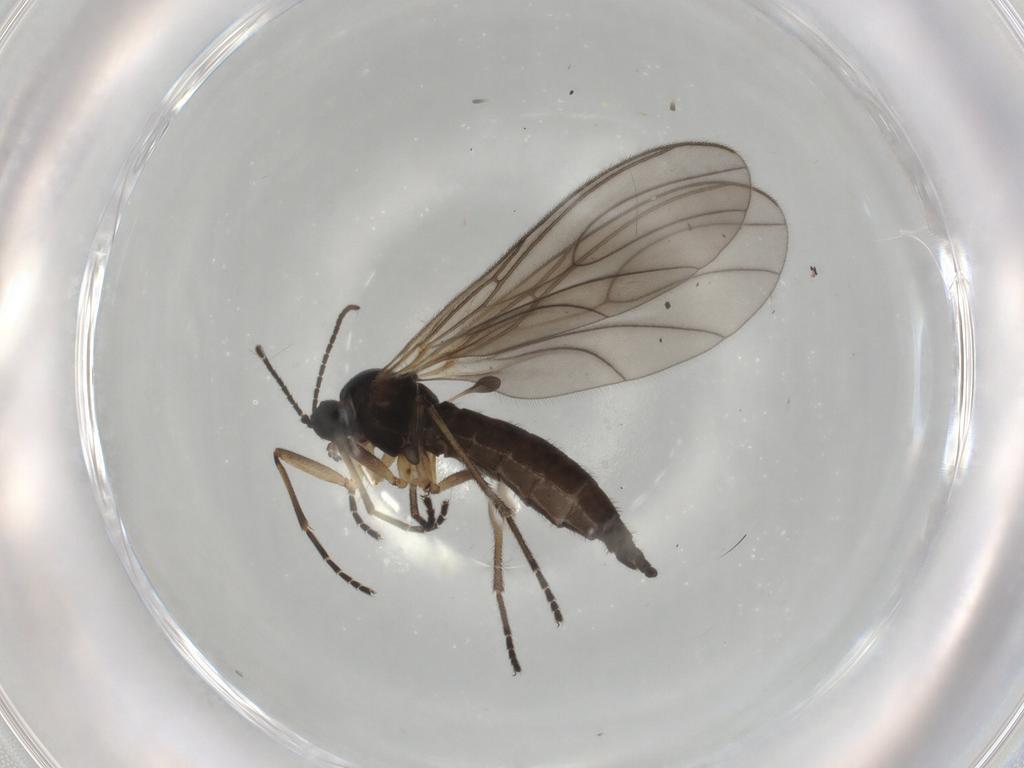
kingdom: Animalia
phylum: Arthropoda
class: Insecta
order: Diptera
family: Sciaridae
